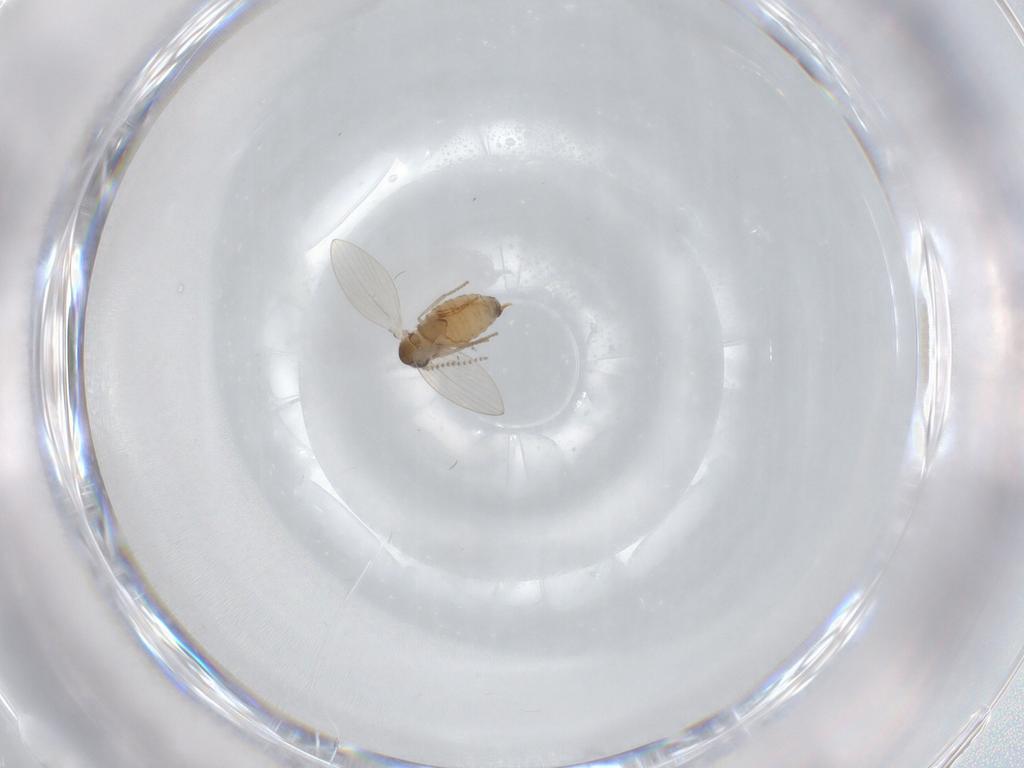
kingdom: Animalia
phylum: Arthropoda
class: Insecta
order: Diptera
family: Psychodidae
